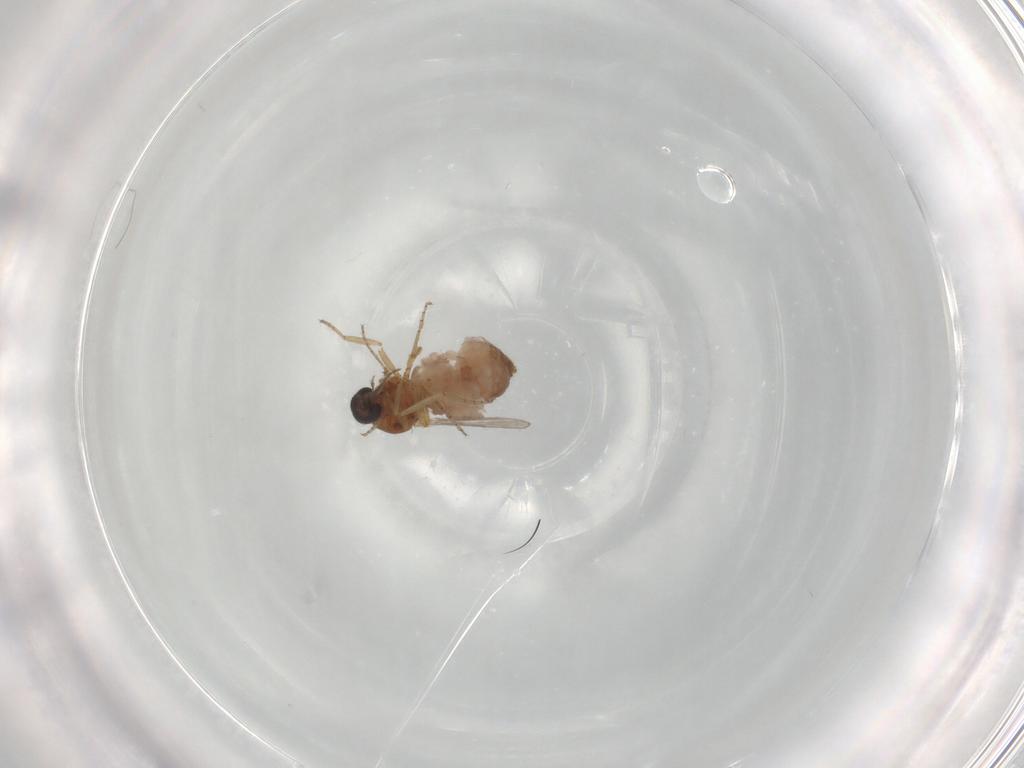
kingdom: Animalia
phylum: Arthropoda
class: Insecta
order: Diptera
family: Ceratopogonidae
